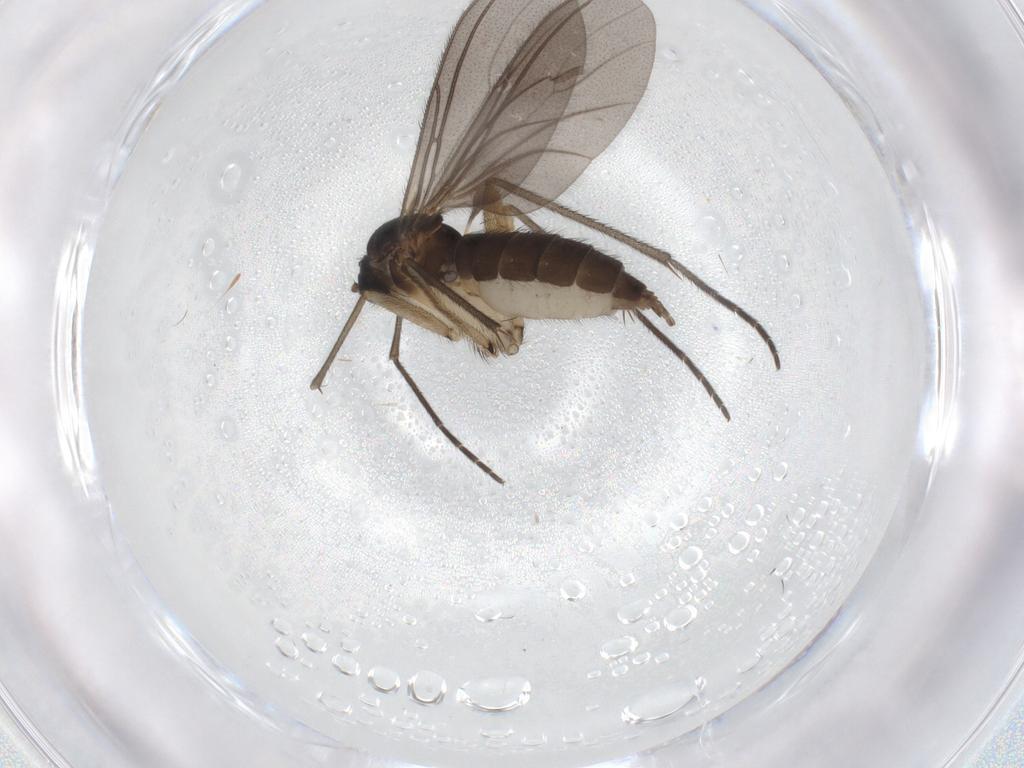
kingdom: Animalia
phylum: Arthropoda
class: Insecta
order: Diptera
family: Sciaridae
